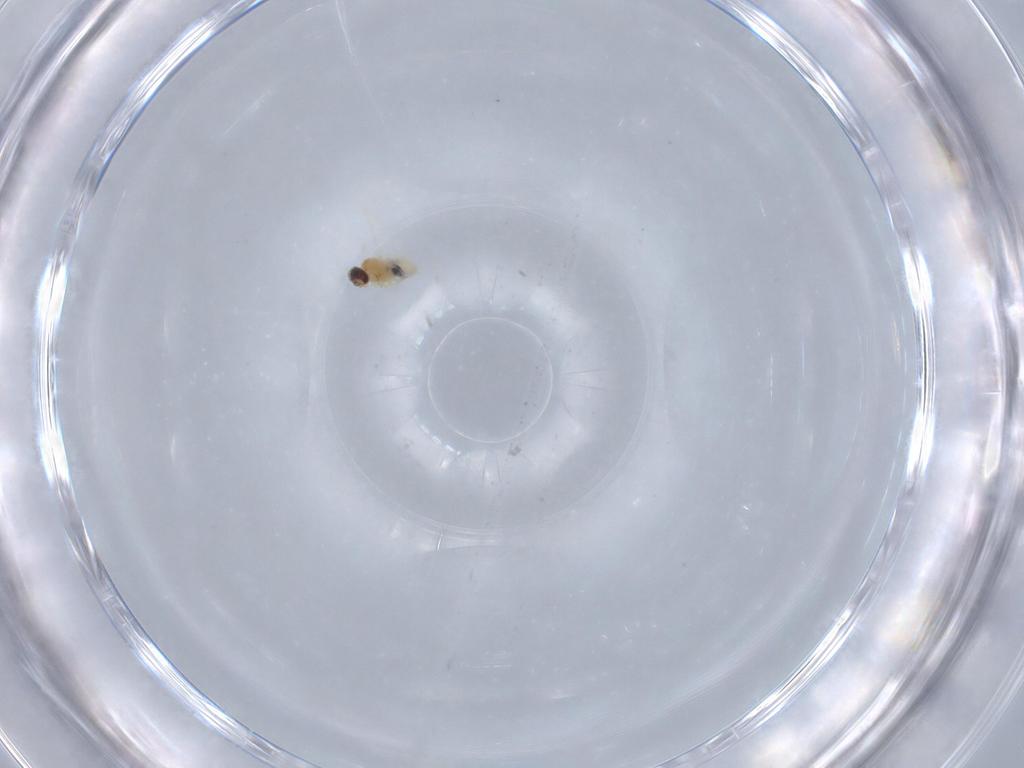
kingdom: Animalia
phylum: Arthropoda
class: Insecta
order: Diptera
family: Cecidomyiidae
